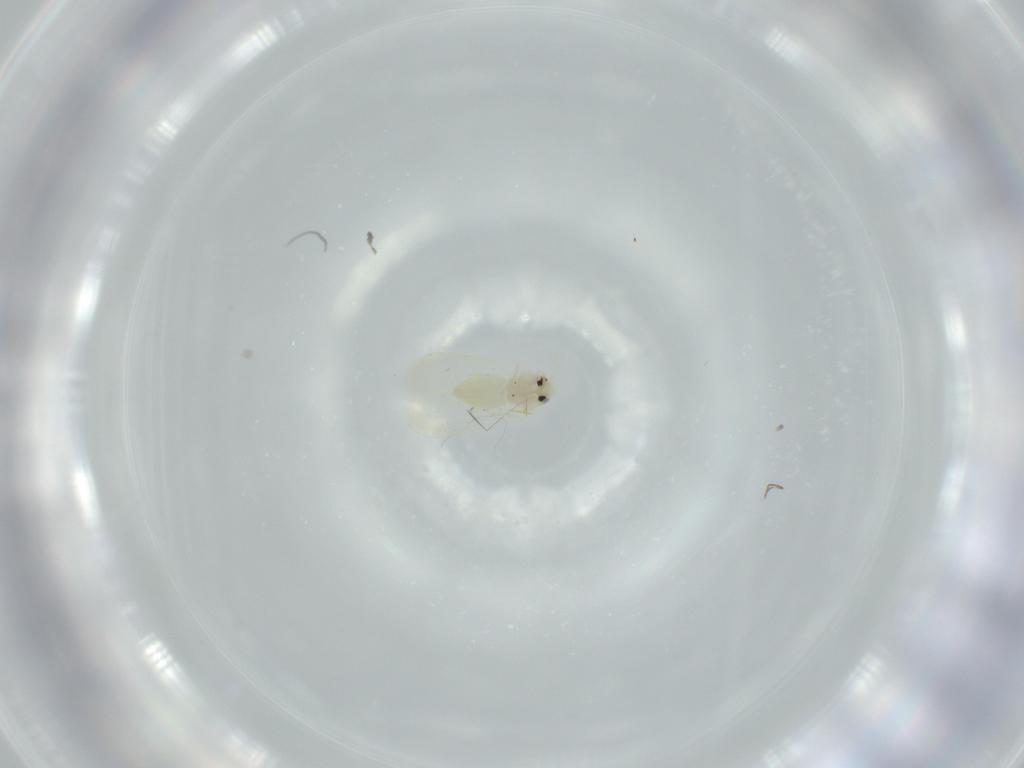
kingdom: Animalia
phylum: Arthropoda
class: Insecta
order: Hemiptera
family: Aleyrodidae
